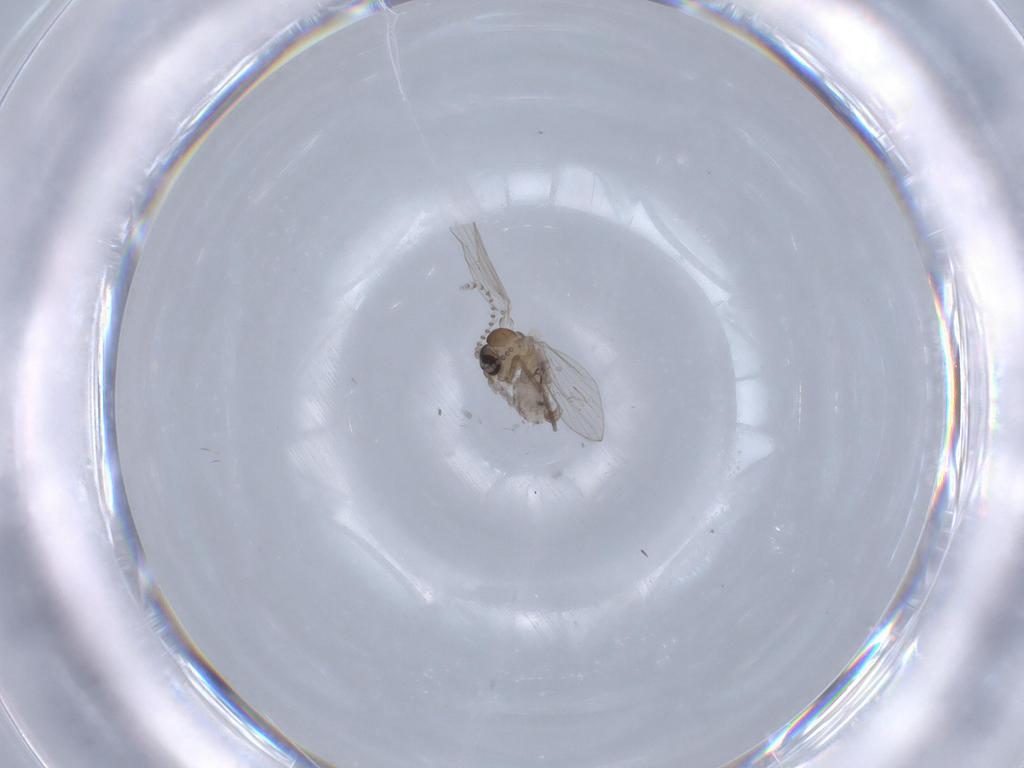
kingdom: Animalia
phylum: Arthropoda
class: Insecta
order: Diptera
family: Psychodidae
